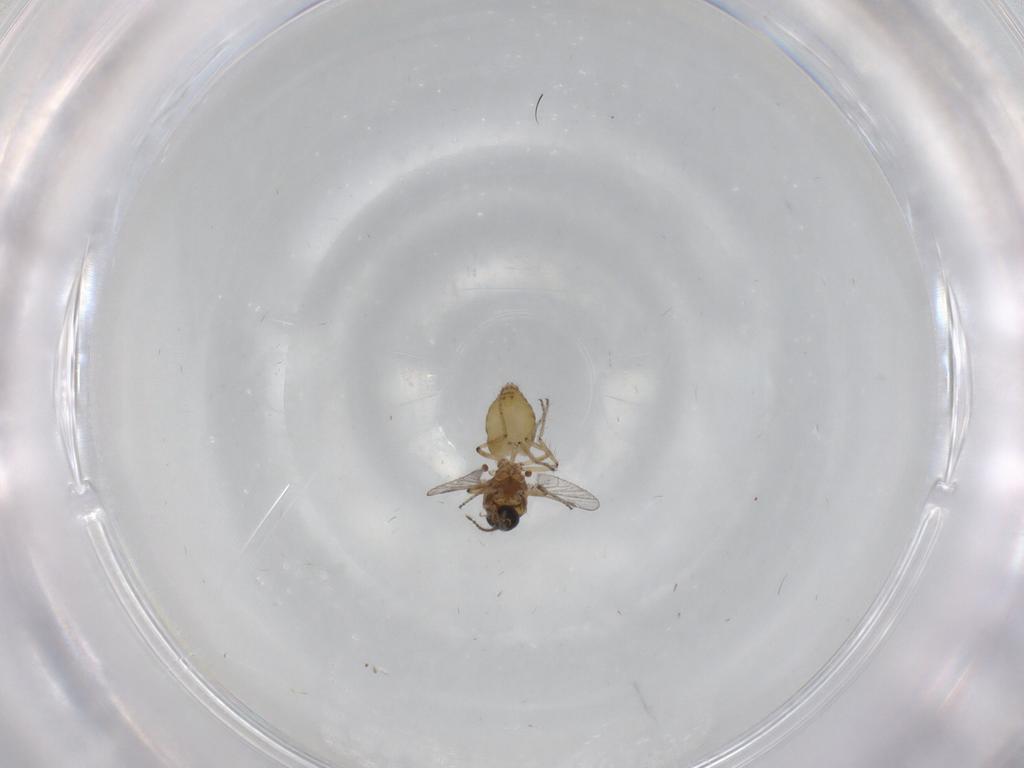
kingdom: Animalia
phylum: Arthropoda
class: Insecta
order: Diptera
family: Ceratopogonidae
